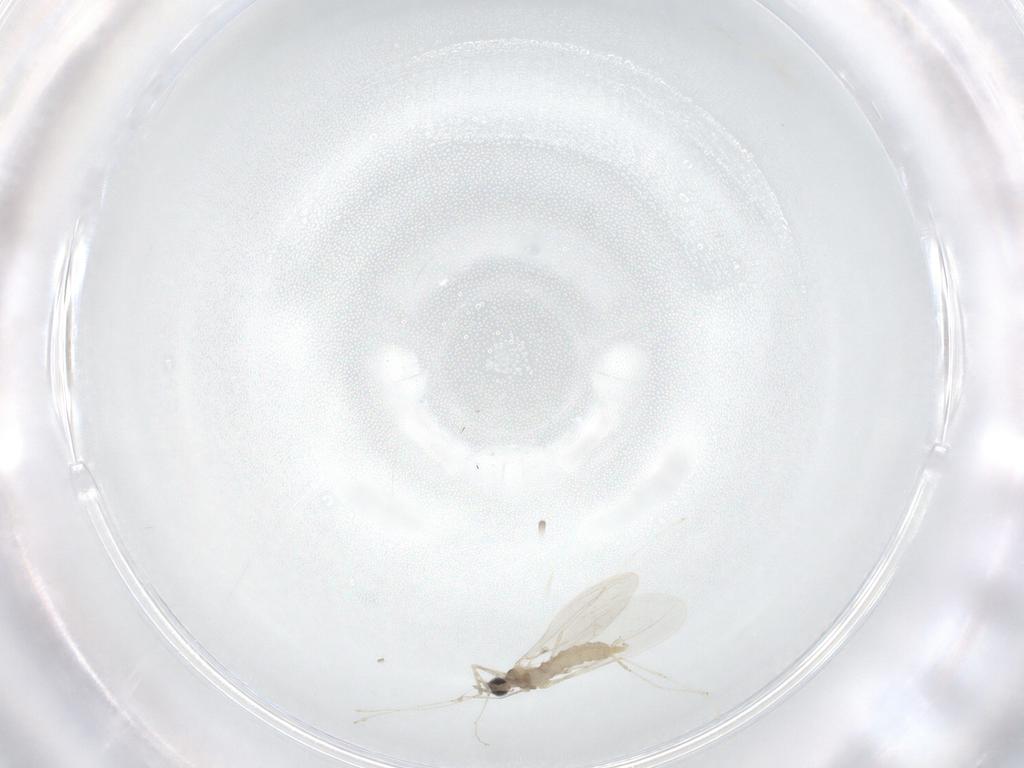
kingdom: Animalia
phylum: Arthropoda
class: Insecta
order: Diptera
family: Cecidomyiidae
